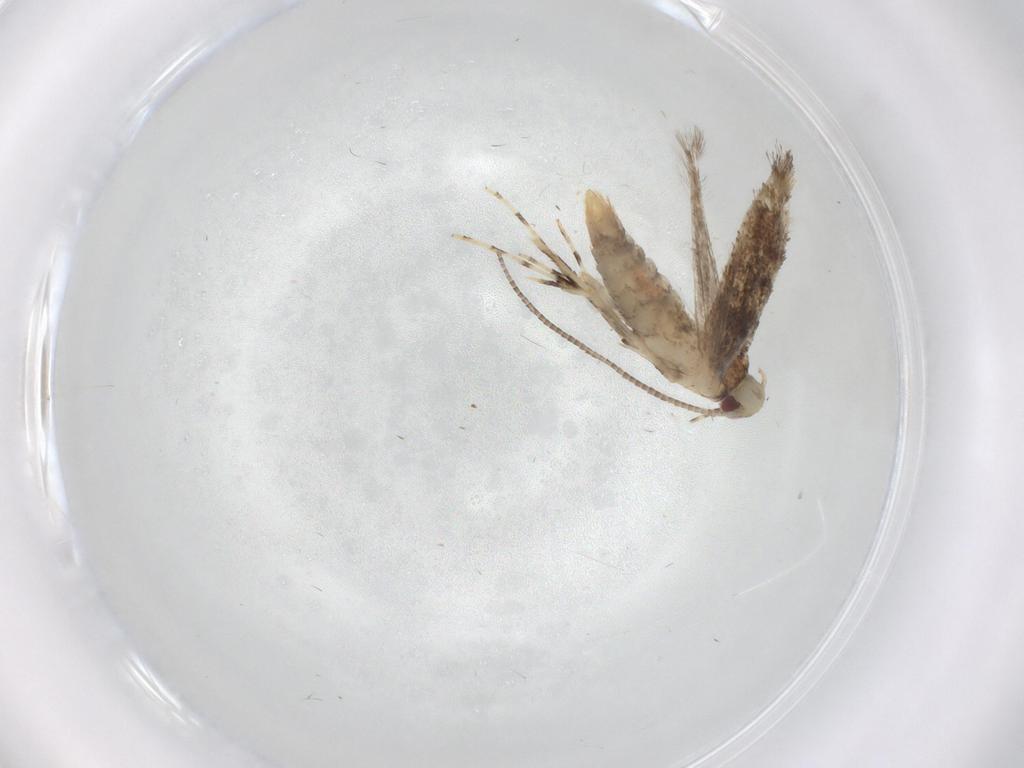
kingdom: Animalia
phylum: Arthropoda
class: Insecta
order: Lepidoptera
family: Gracillariidae
